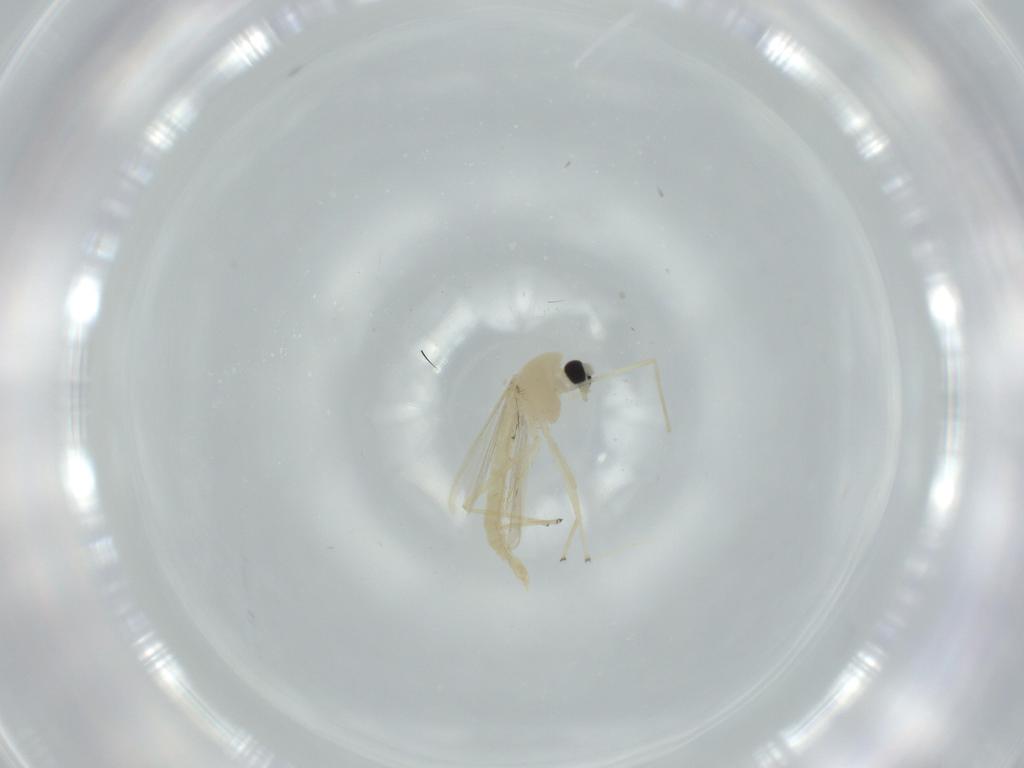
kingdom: Animalia
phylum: Arthropoda
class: Insecta
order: Diptera
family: Chironomidae
